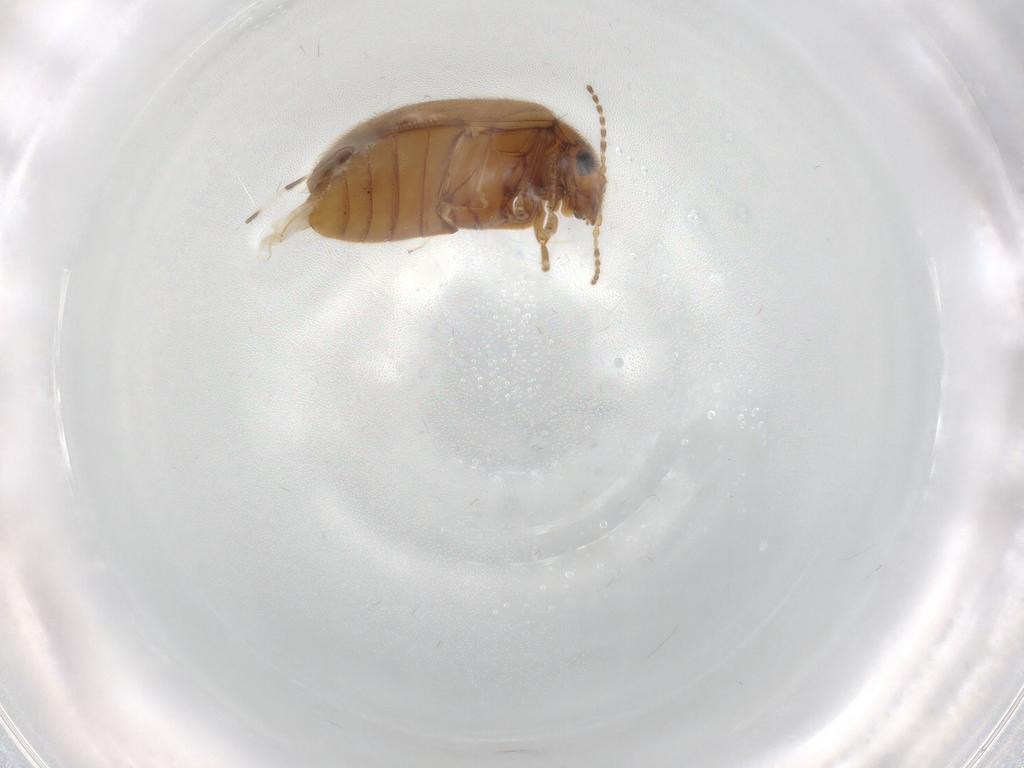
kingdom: Animalia
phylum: Arthropoda
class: Insecta
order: Coleoptera
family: Scirtidae
